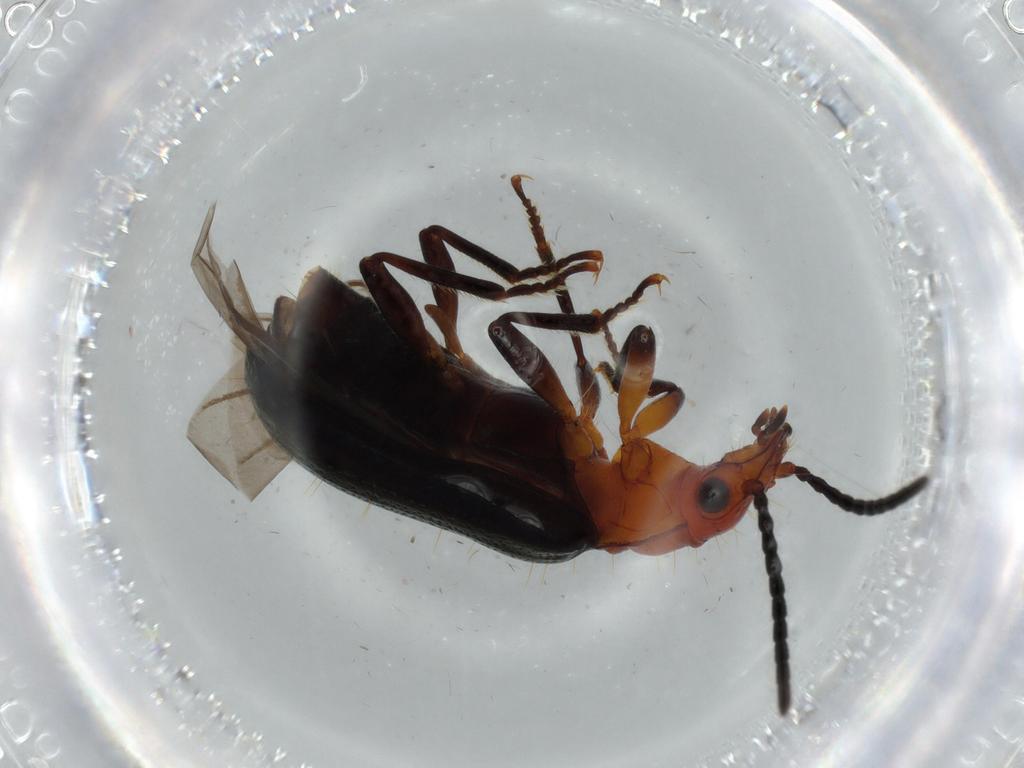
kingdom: Animalia
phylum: Arthropoda
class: Insecta
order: Coleoptera
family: Carabidae
